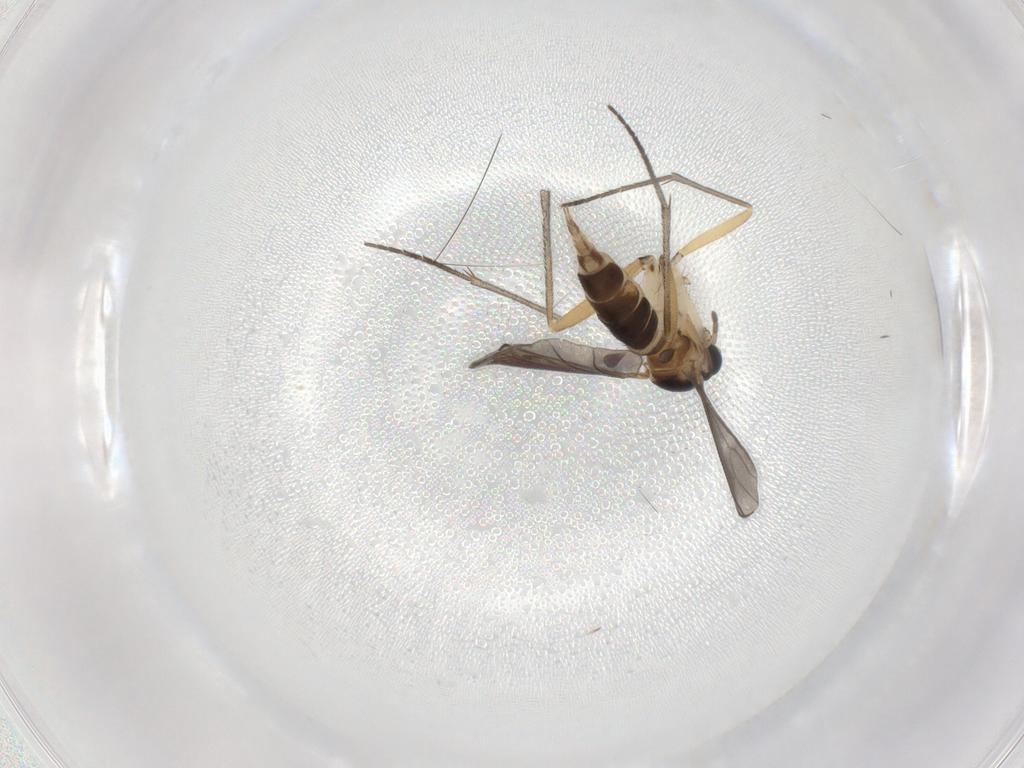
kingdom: Animalia
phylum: Arthropoda
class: Insecta
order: Diptera
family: Sciaridae
